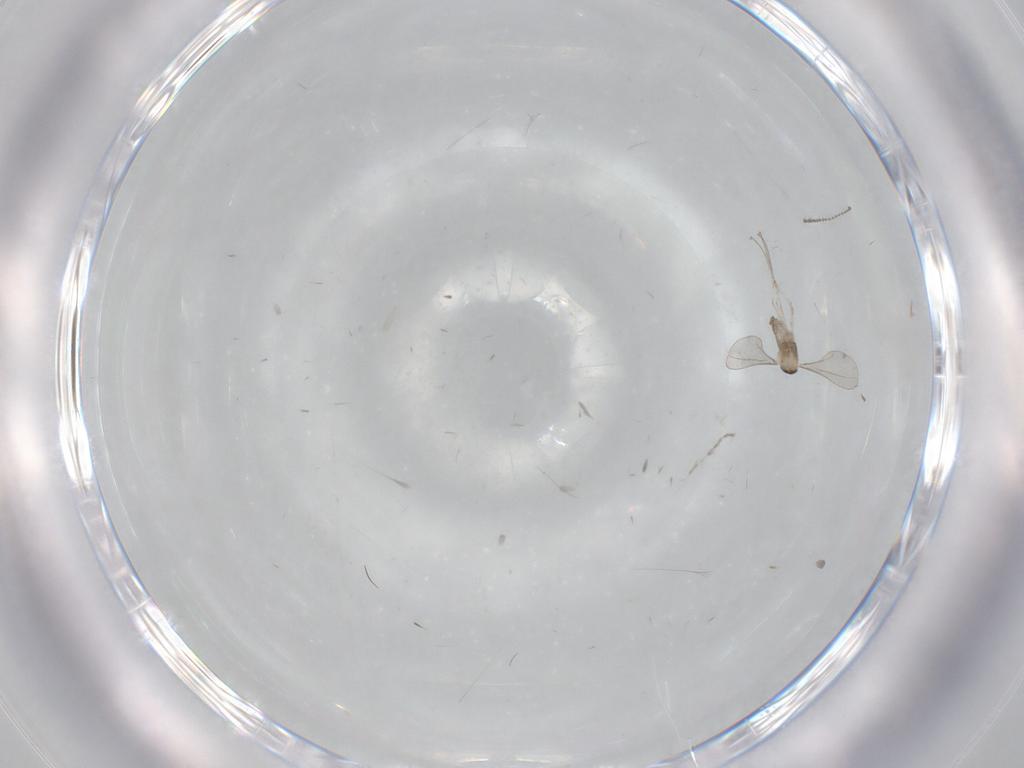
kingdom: Animalia
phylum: Arthropoda
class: Insecta
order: Diptera
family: Cecidomyiidae
